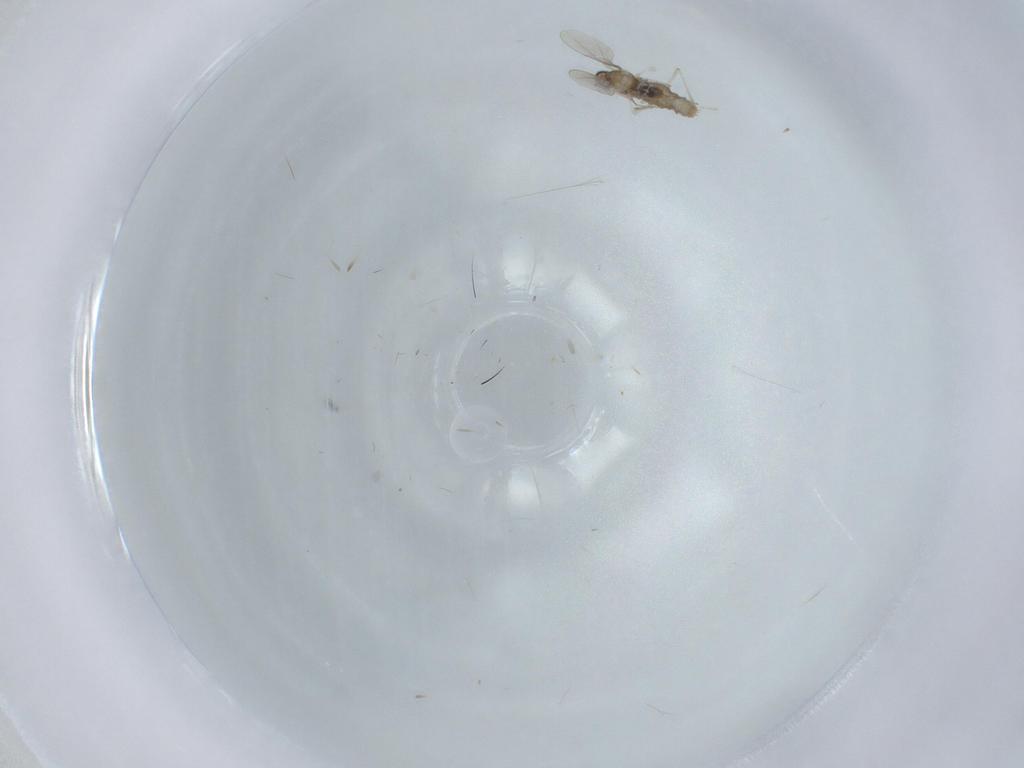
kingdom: Animalia
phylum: Arthropoda
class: Insecta
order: Diptera
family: Cecidomyiidae
